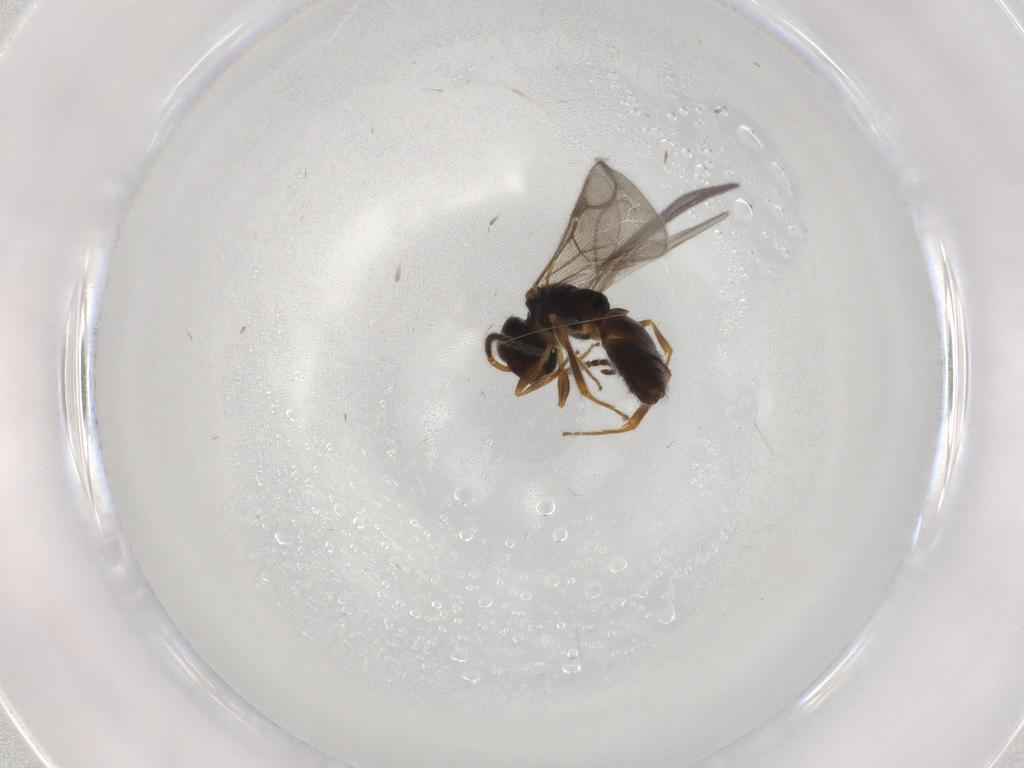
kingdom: Animalia
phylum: Arthropoda
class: Insecta
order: Hymenoptera
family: Bethylidae
